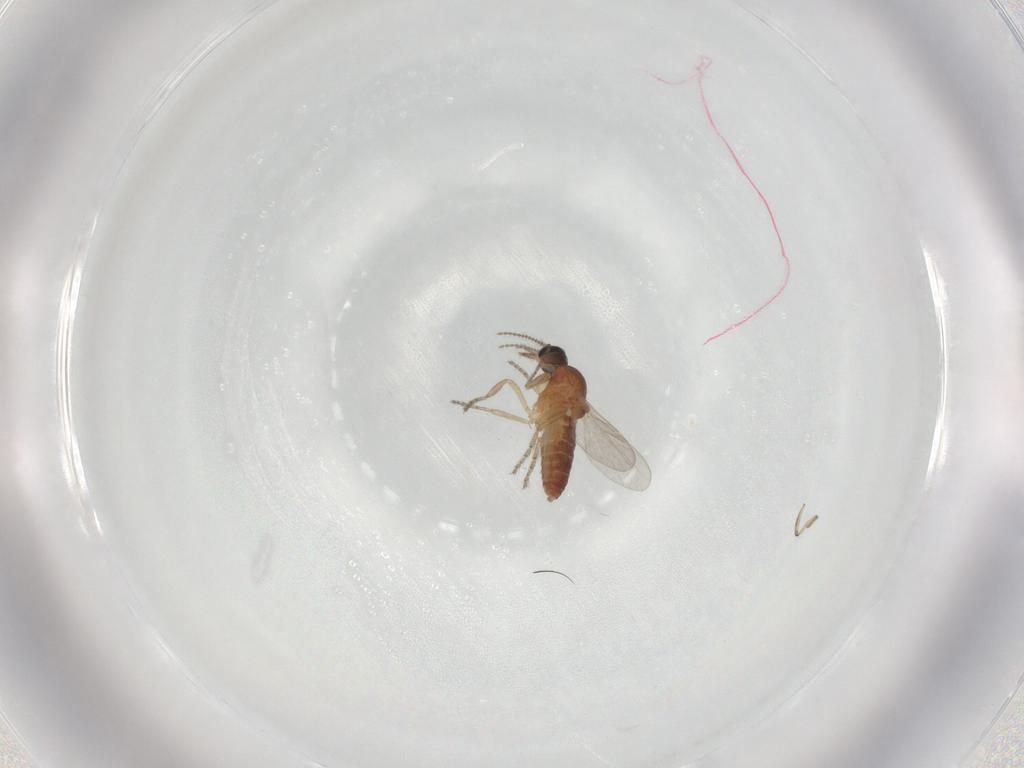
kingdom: Animalia
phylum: Arthropoda
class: Insecta
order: Diptera
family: Ceratopogonidae
